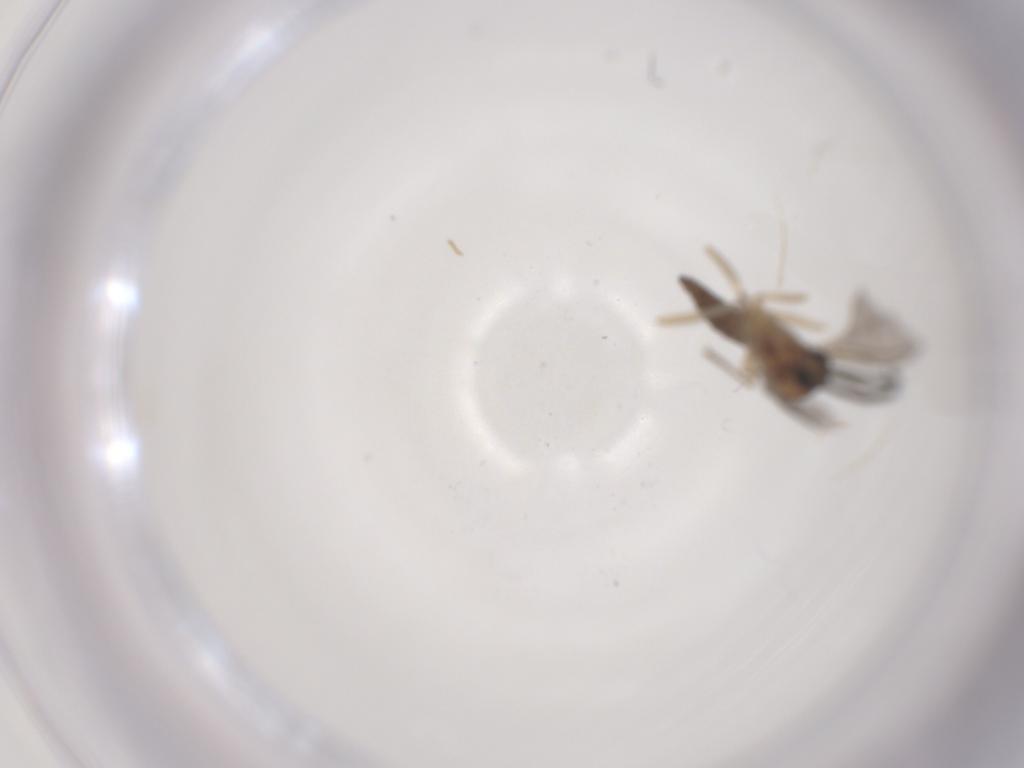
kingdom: Animalia
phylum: Arthropoda
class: Insecta
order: Diptera
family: Sciaridae
